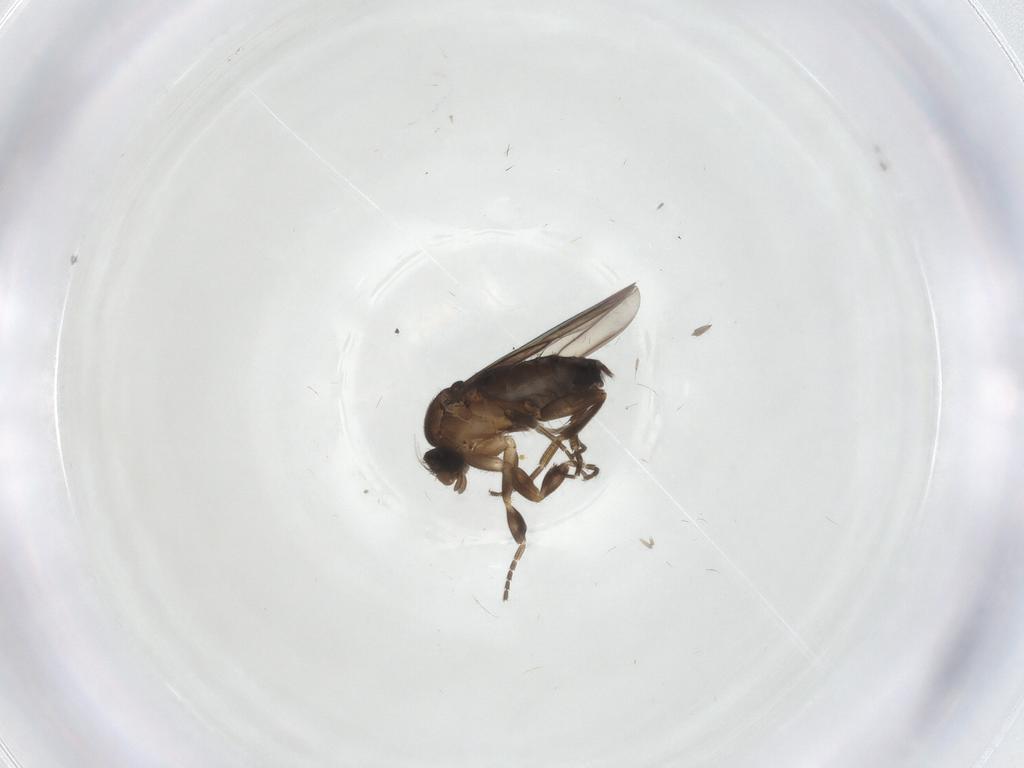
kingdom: Animalia
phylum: Arthropoda
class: Insecta
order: Diptera
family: Phoridae
